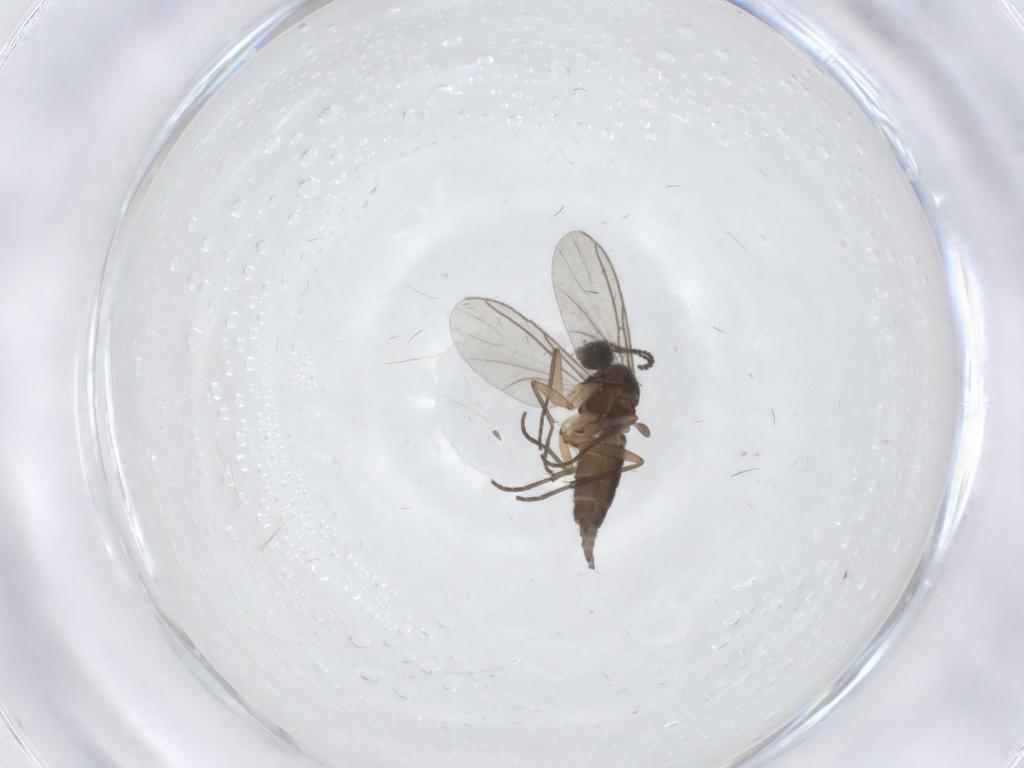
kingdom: Animalia
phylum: Arthropoda
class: Insecta
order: Diptera
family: Sciaridae
